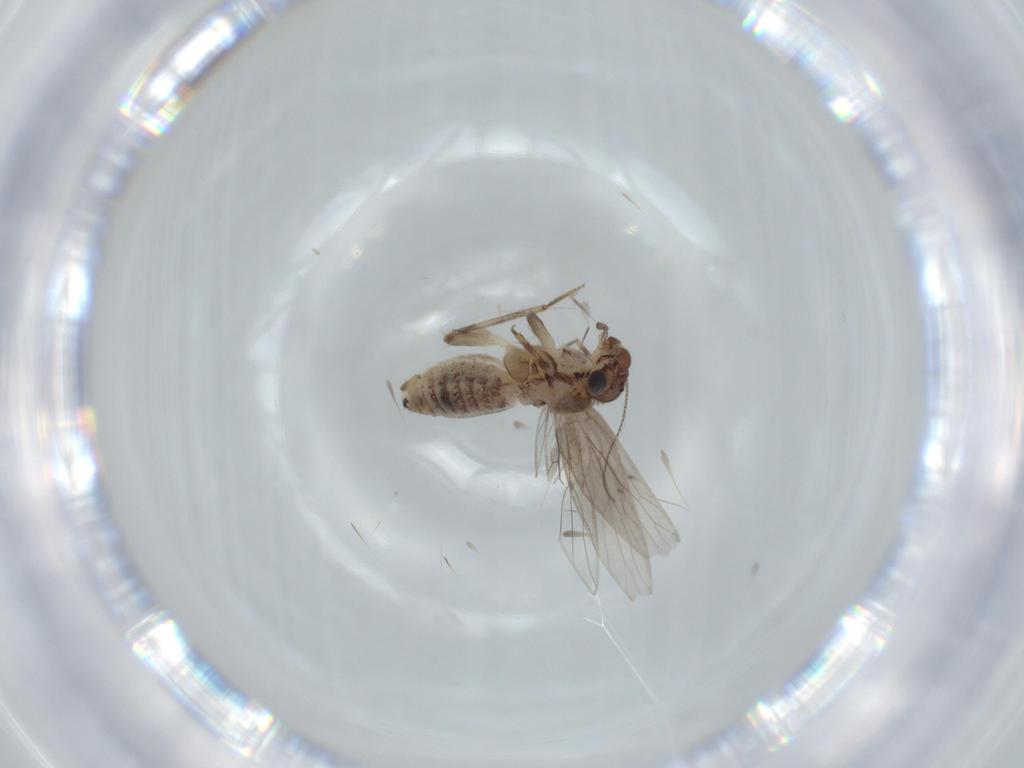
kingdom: Animalia
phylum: Arthropoda
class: Insecta
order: Psocodea
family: Lepidopsocidae
